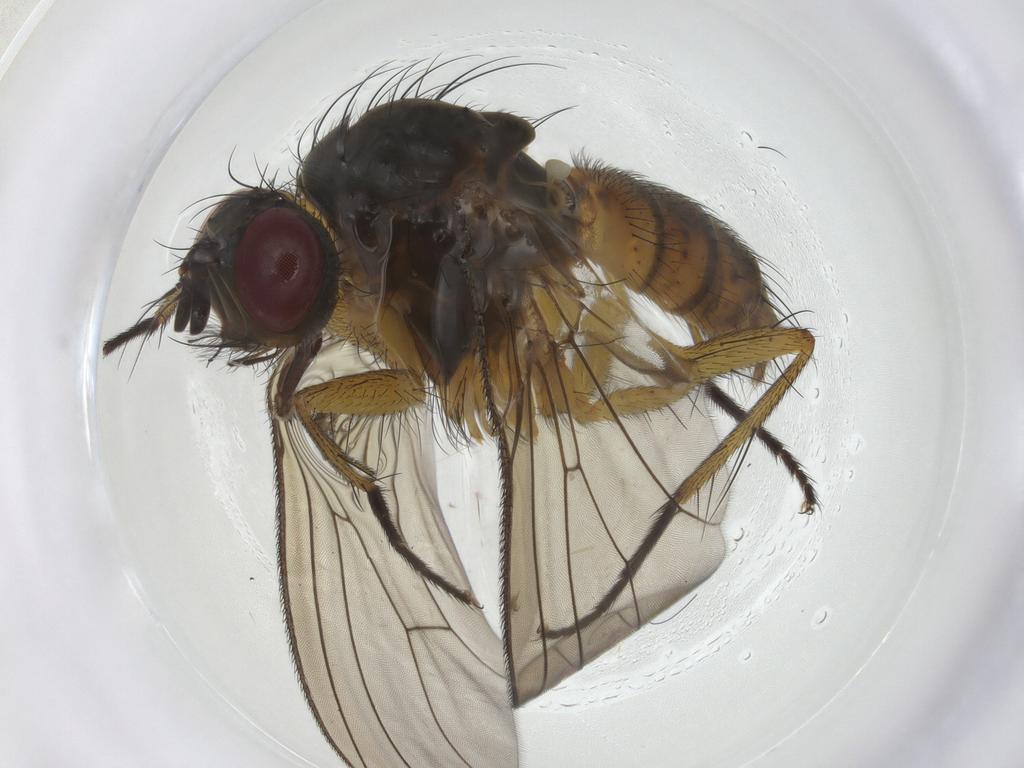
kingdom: Animalia
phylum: Arthropoda
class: Insecta
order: Diptera
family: Muscidae
